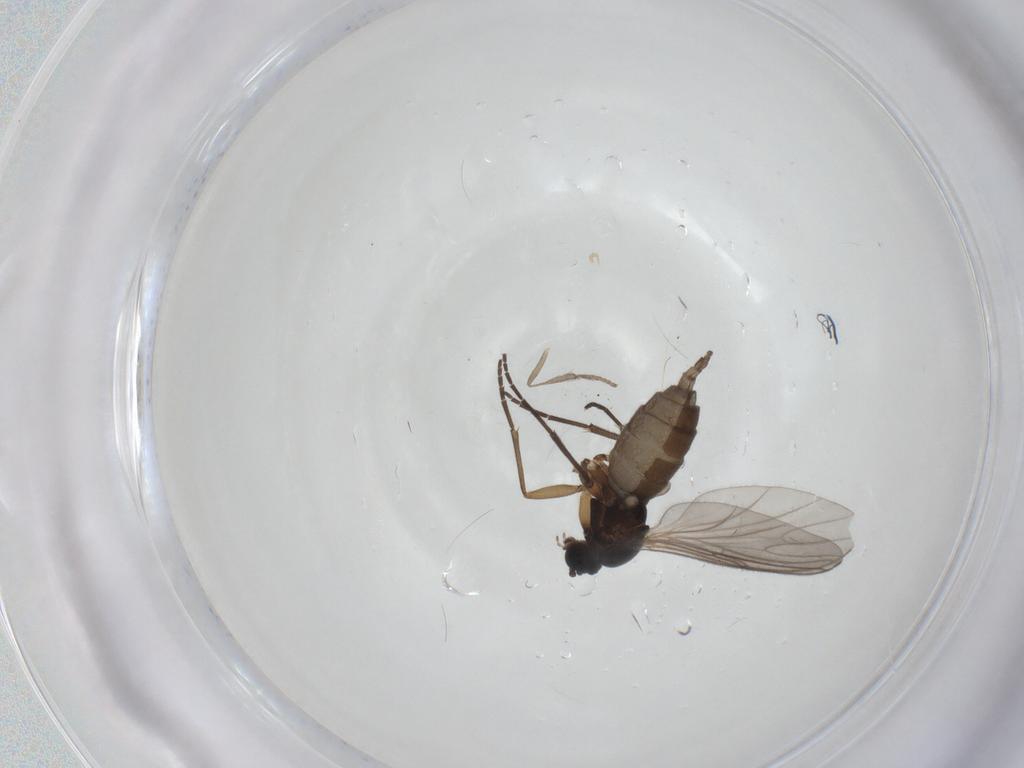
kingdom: Animalia
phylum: Arthropoda
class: Insecta
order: Diptera
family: Sciaridae
